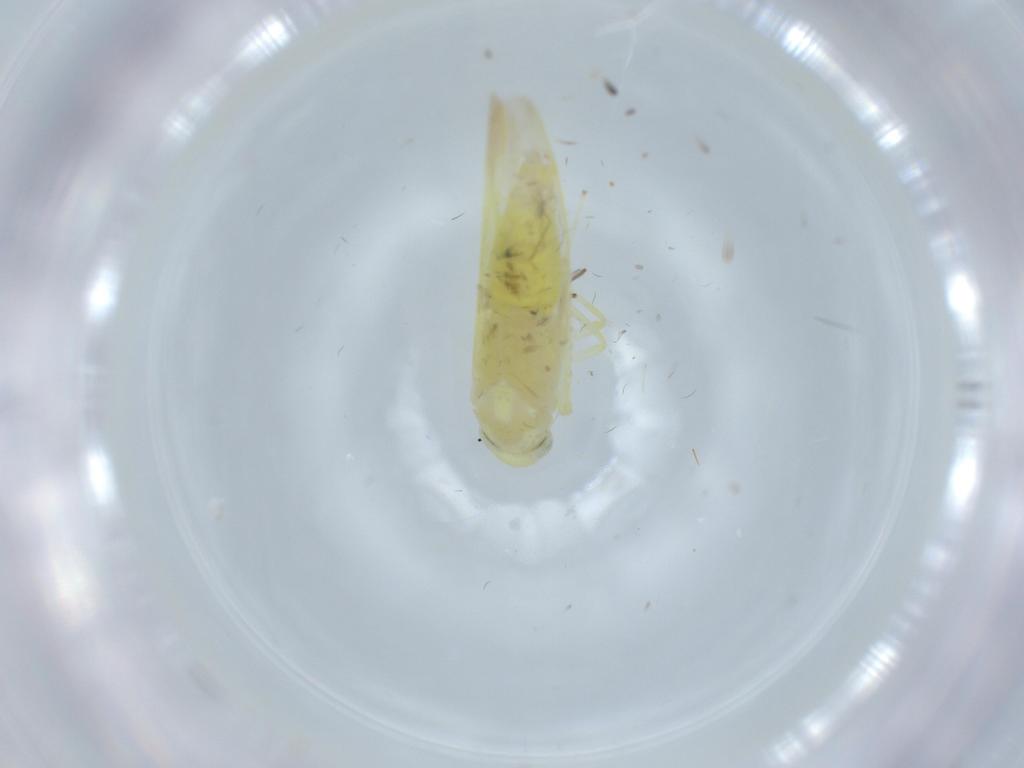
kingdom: Animalia
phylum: Arthropoda
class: Insecta
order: Hemiptera
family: Cicadellidae
